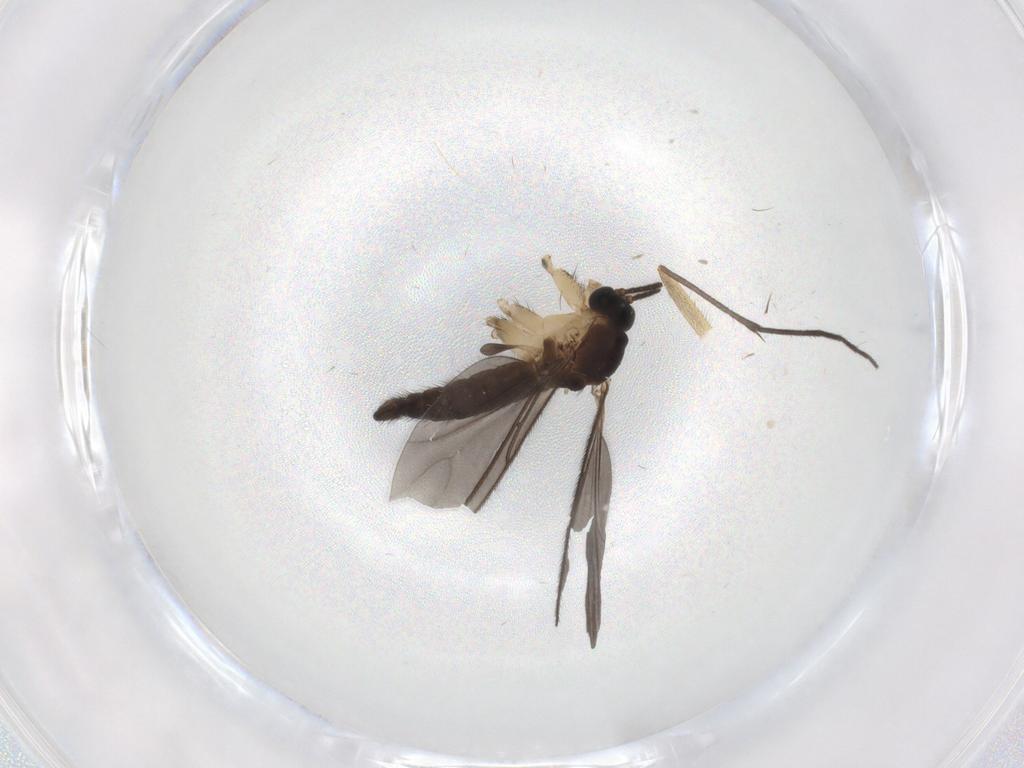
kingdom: Animalia
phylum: Arthropoda
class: Insecta
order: Diptera
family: Sciaridae
